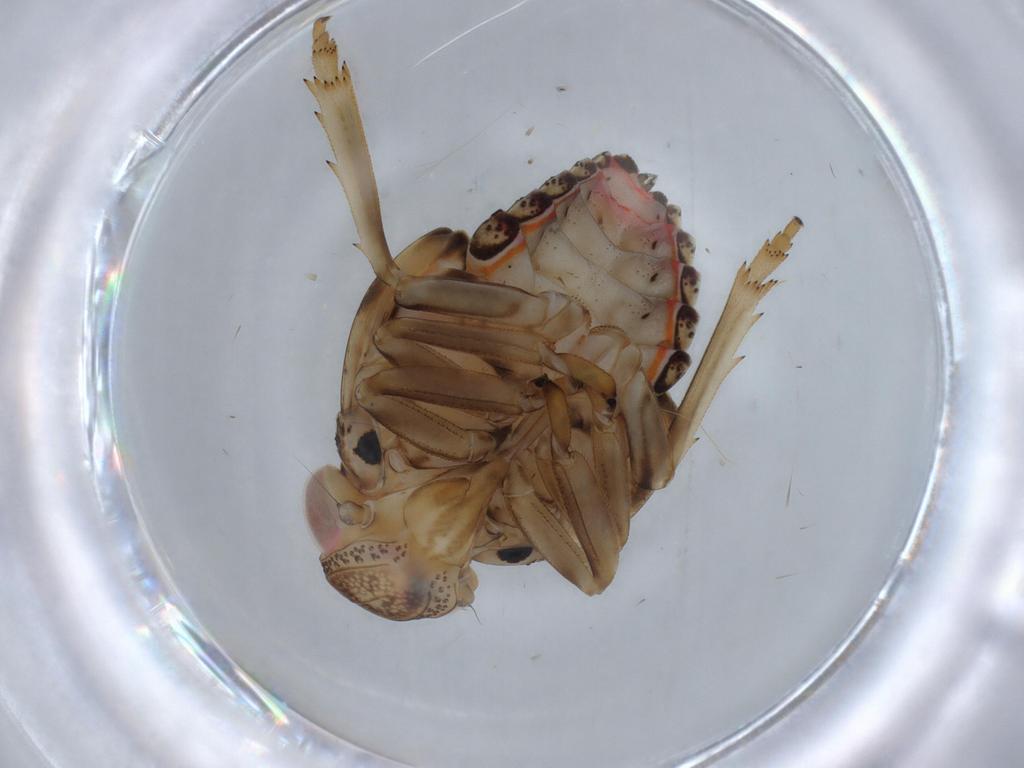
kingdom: Animalia
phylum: Arthropoda
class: Insecta
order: Hemiptera
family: Issidae
